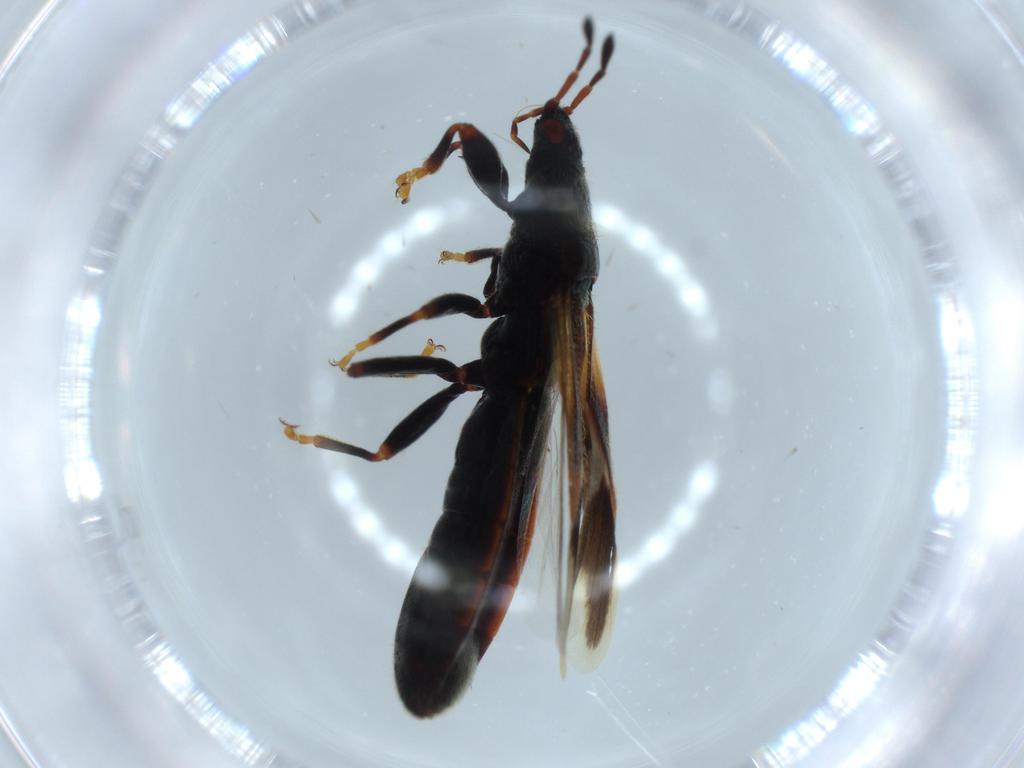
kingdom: Animalia
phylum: Arthropoda
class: Insecta
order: Hemiptera
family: Blissidae
